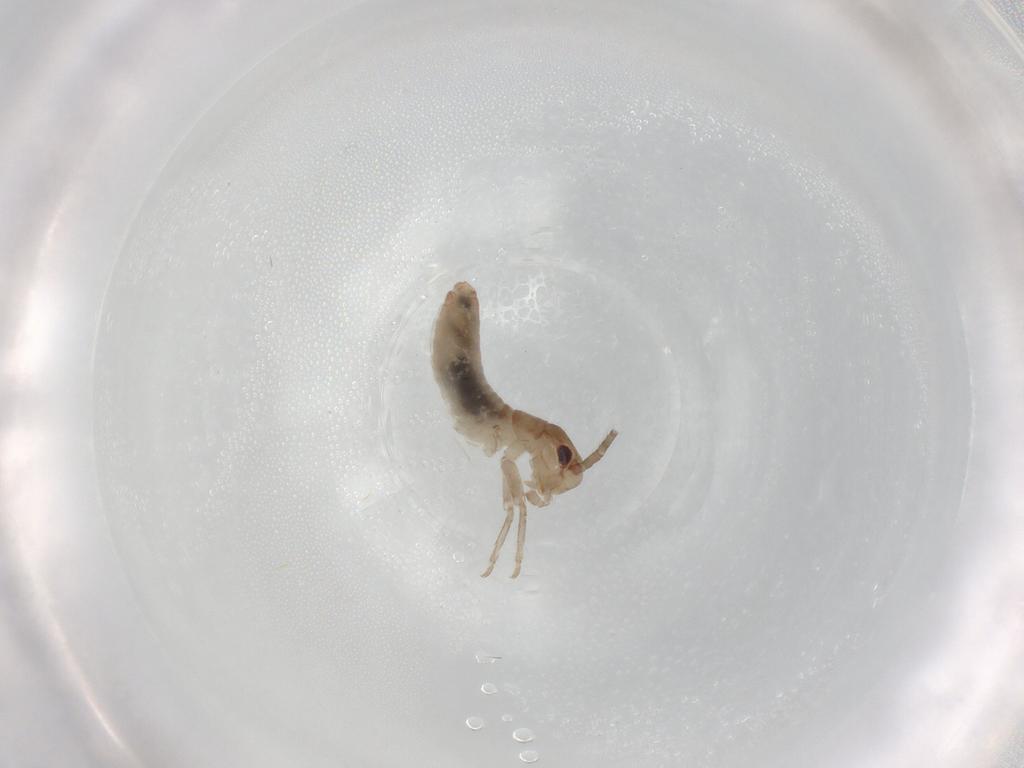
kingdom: Animalia
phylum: Arthropoda
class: Insecta
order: Orthoptera
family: Mogoplistidae
